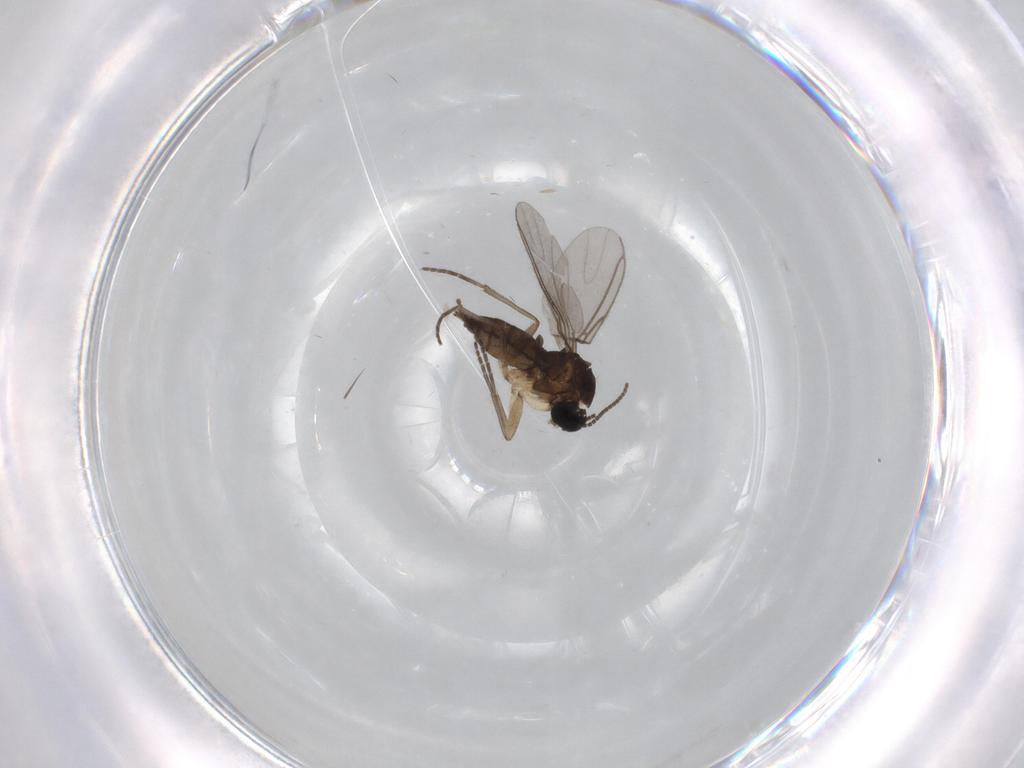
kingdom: Animalia
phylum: Arthropoda
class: Insecta
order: Diptera
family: Sciaridae
